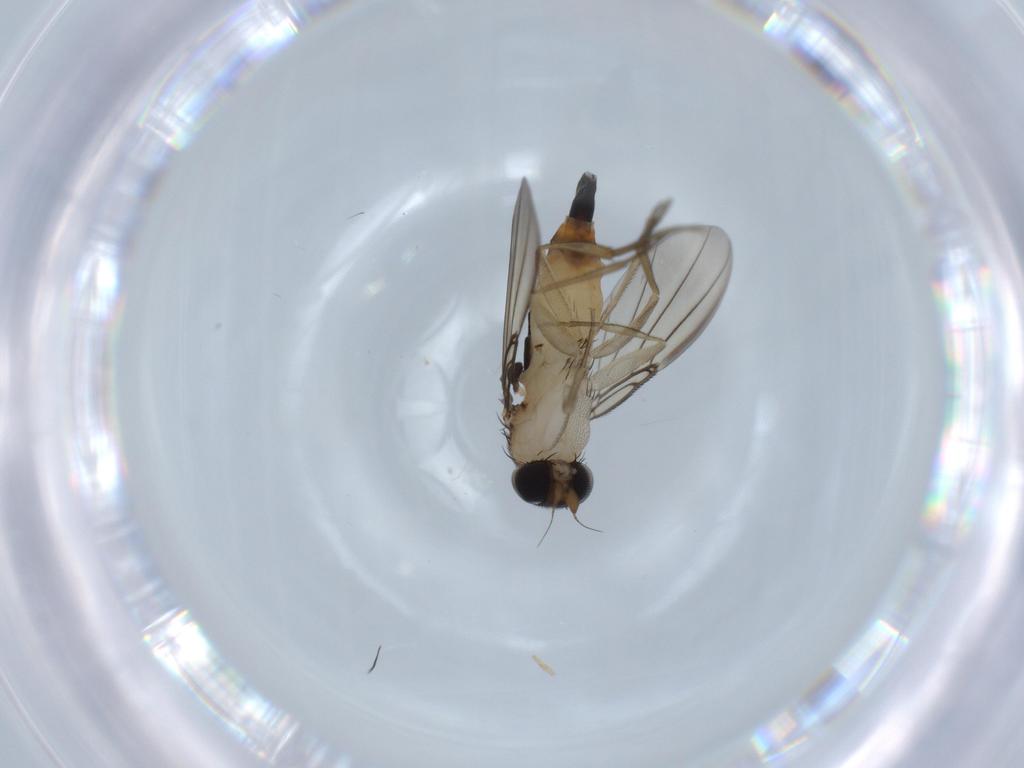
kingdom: Animalia
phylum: Arthropoda
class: Insecta
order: Diptera
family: Phoridae
